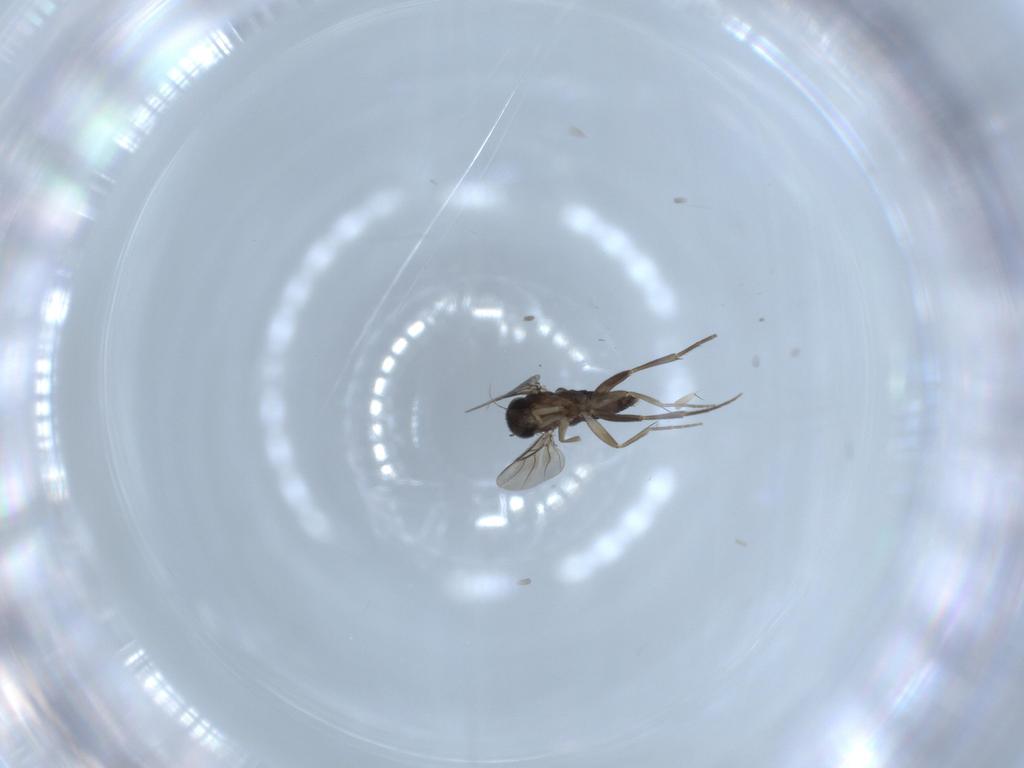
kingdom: Animalia
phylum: Arthropoda
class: Insecta
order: Diptera
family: Phoridae
